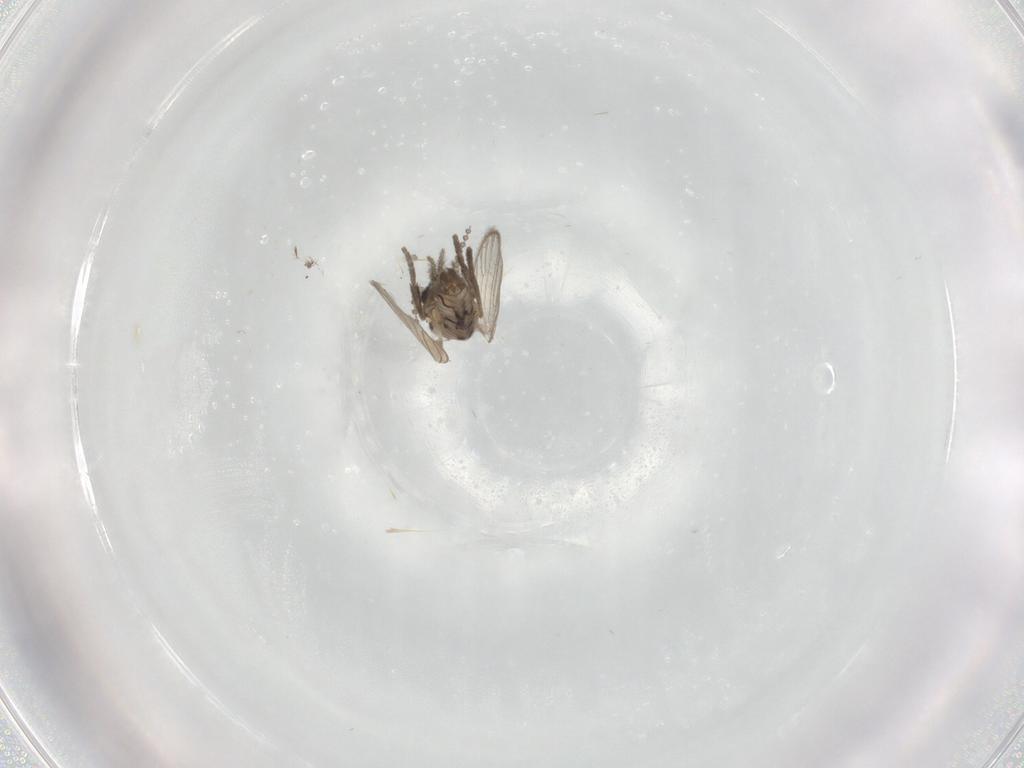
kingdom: Animalia
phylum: Arthropoda
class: Insecta
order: Diptera
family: Psychodidae
